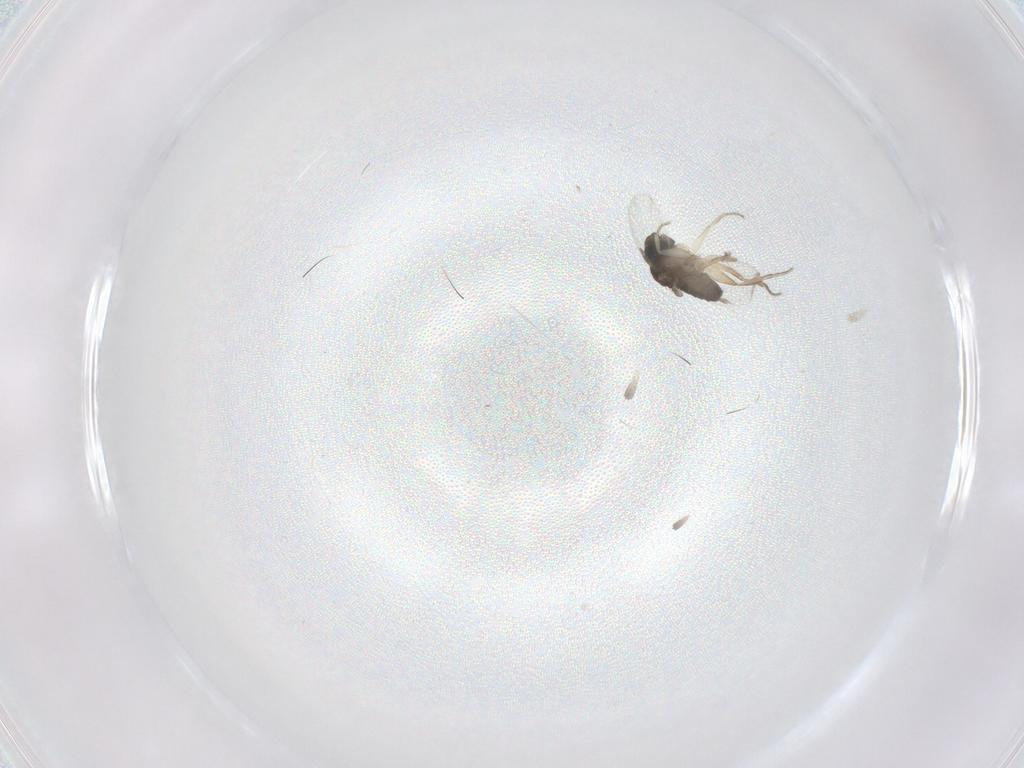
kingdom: Animalia
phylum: Arthropoda
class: Insecta
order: Diptera
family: Phoridae
